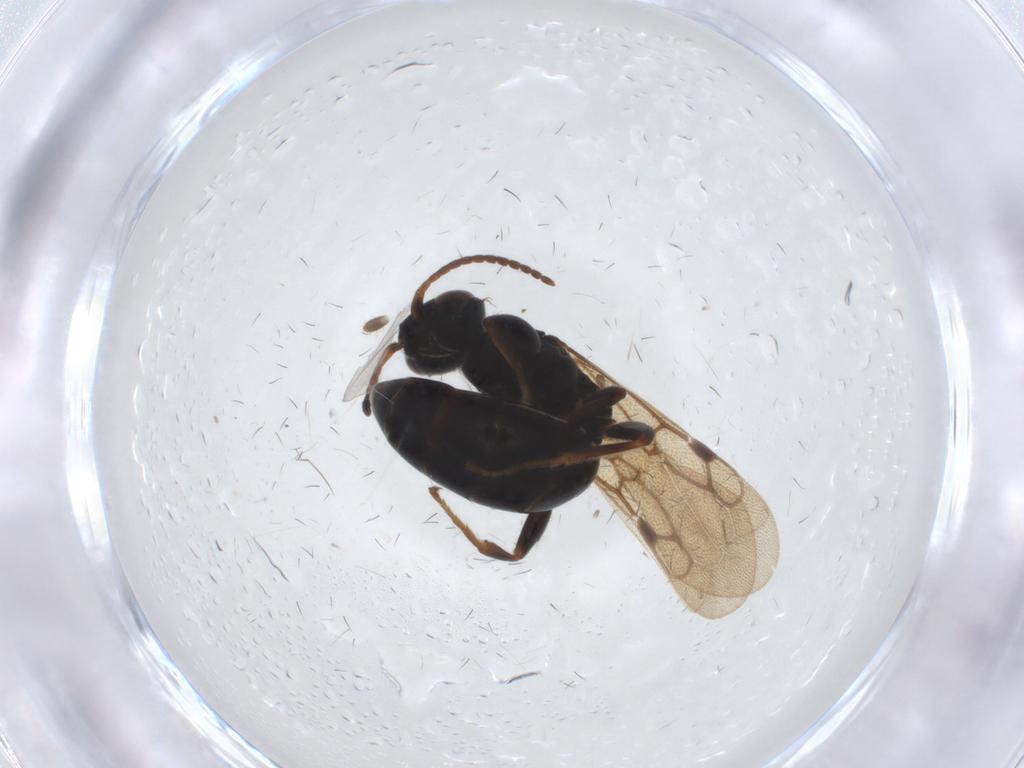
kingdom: Animalia
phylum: Arthropoda
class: Insecta
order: Hymenoptera
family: Bethylidae
